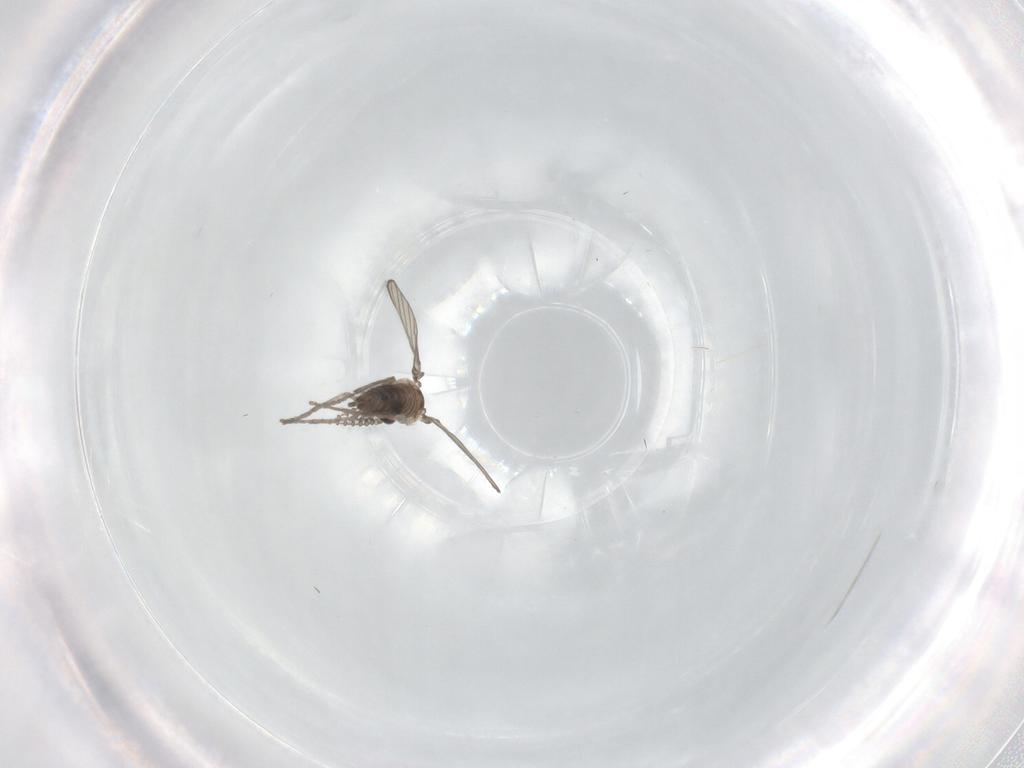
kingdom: Animalia
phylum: Arthropoda
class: Insecta
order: Diptera
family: Psychodidae
